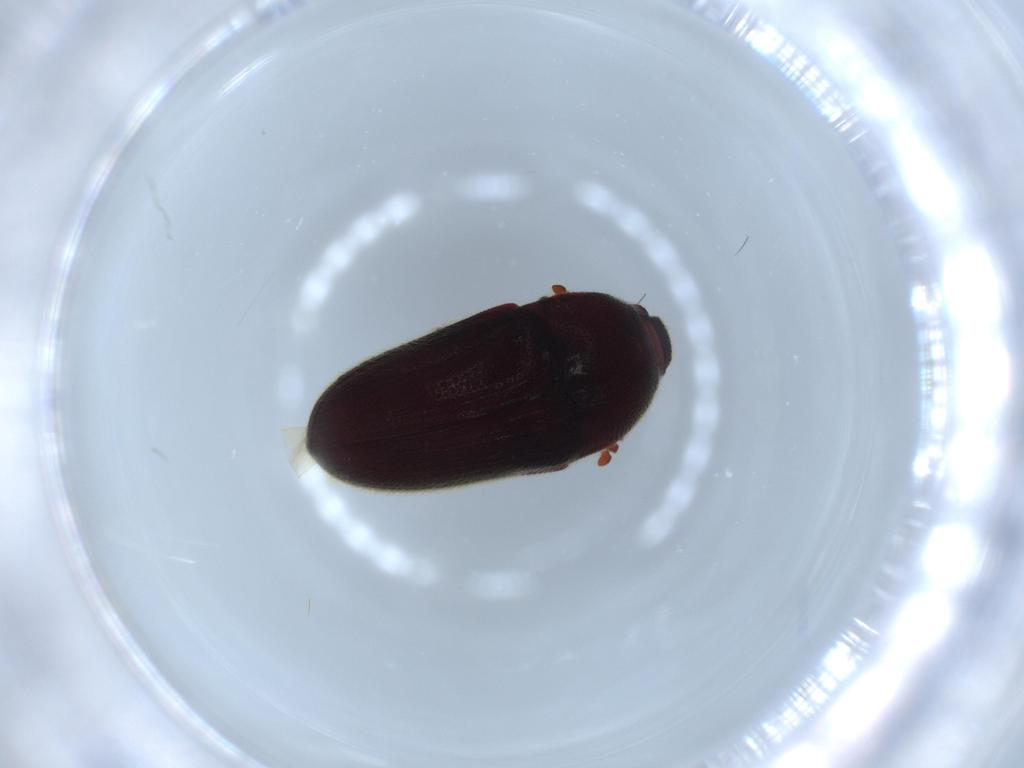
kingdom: Animalia
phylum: Arthropoda
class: Insecta
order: Coleoptera
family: Throscidae
